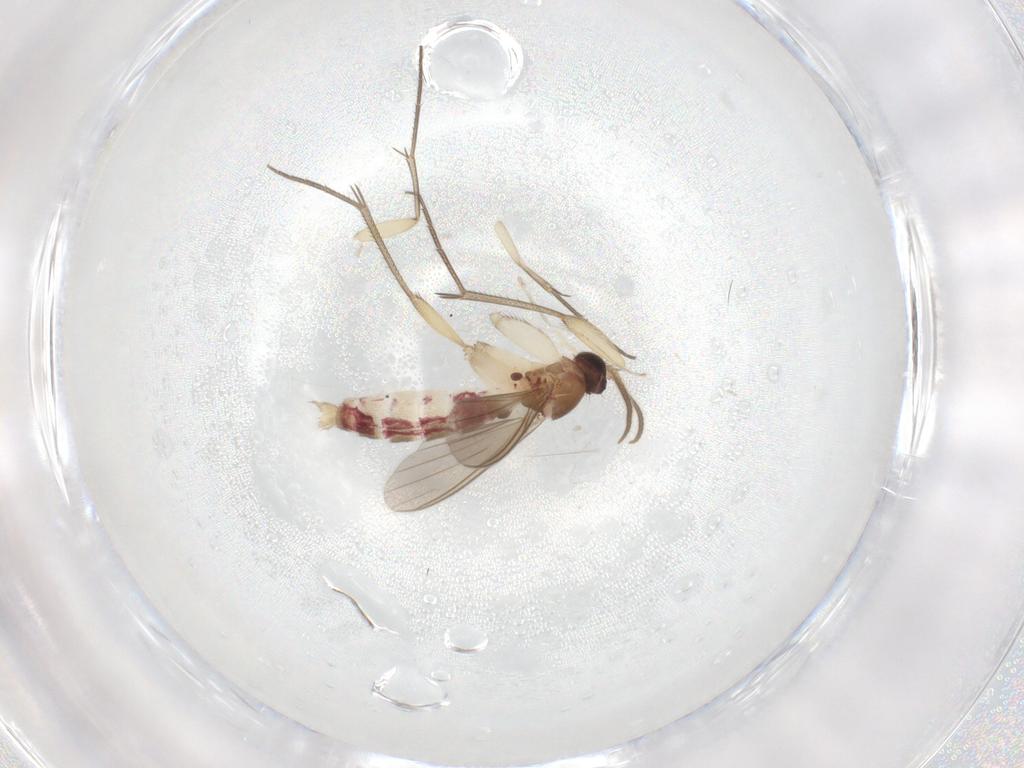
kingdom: Animalia
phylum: Arthropoda
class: Insecta
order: Diptera
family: Mycetophilidae
